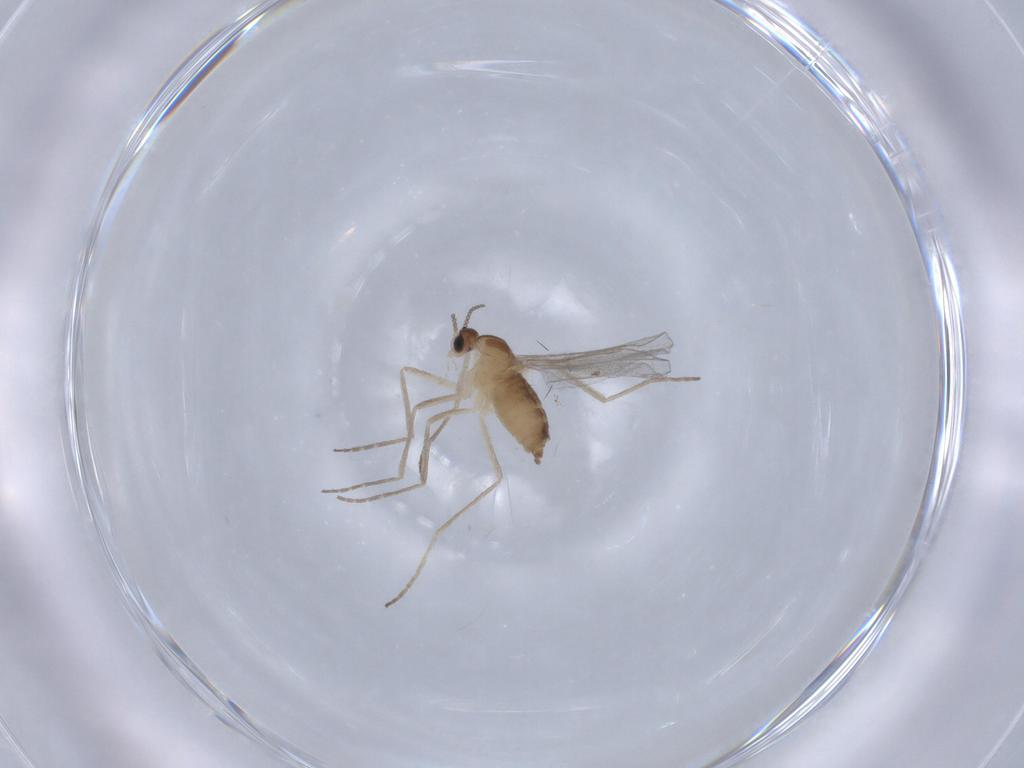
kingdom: Animalia
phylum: Arthropoda
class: Insecta
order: Diptera
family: Cecidomyiidae
